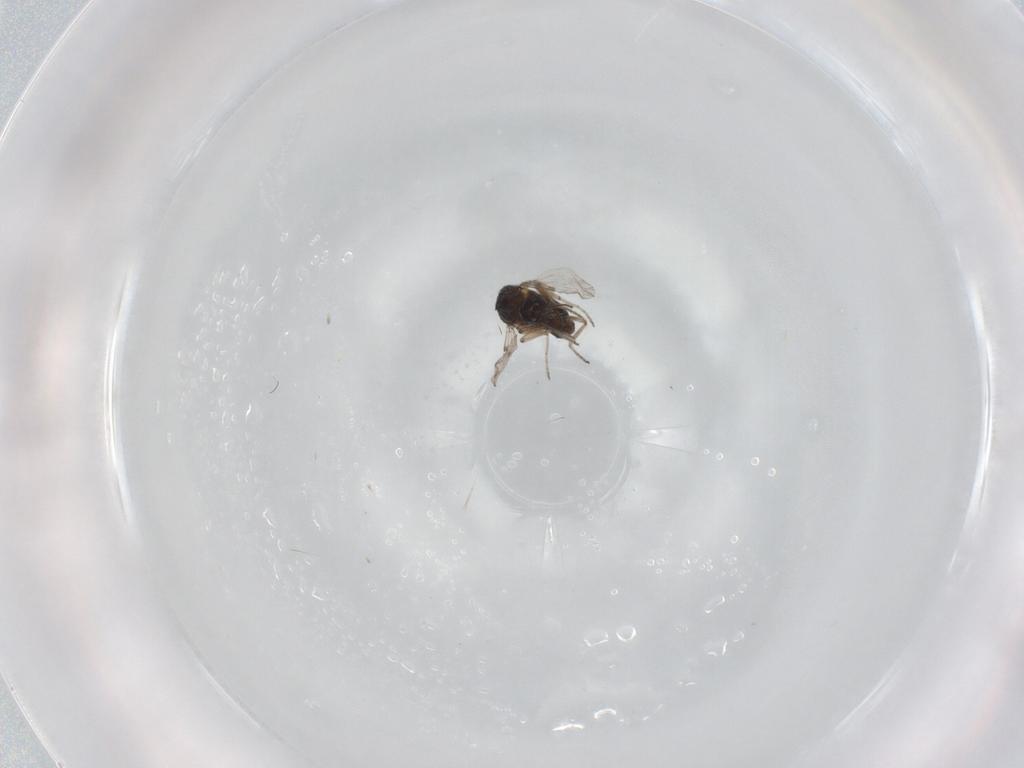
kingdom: Animalia
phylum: Arthropoda
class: Insecta
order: Diptera
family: Ceratopogonidae
